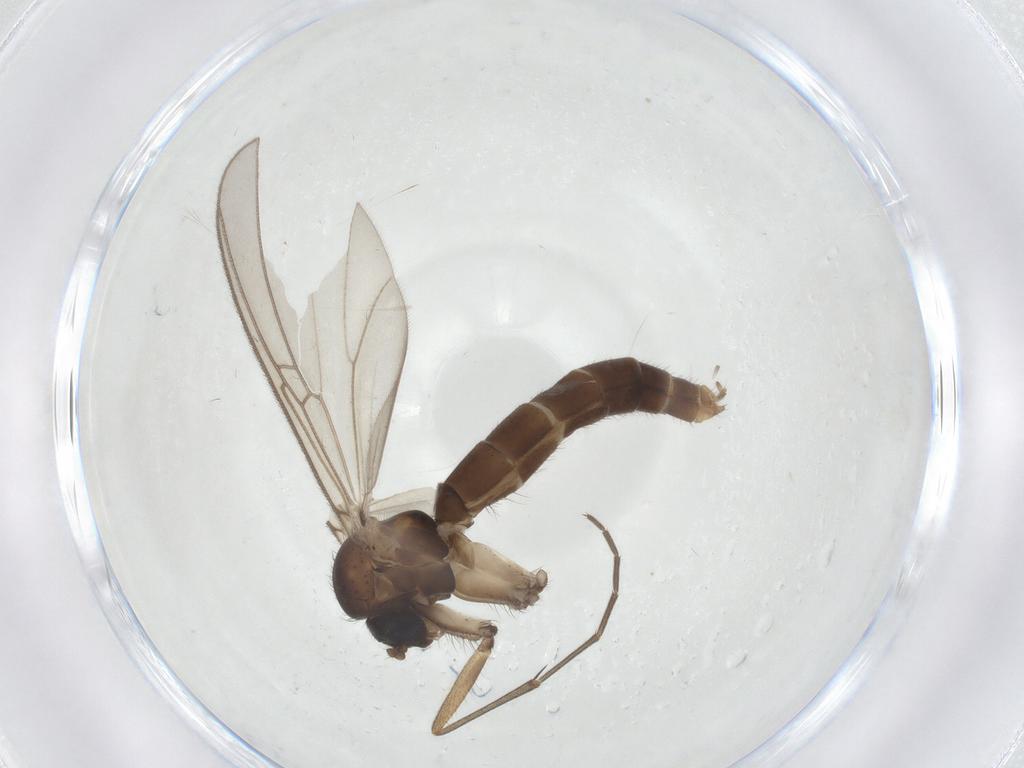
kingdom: Animalia
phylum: Arthropoda
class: Insecta
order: Diptera
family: Mycetophilidae
